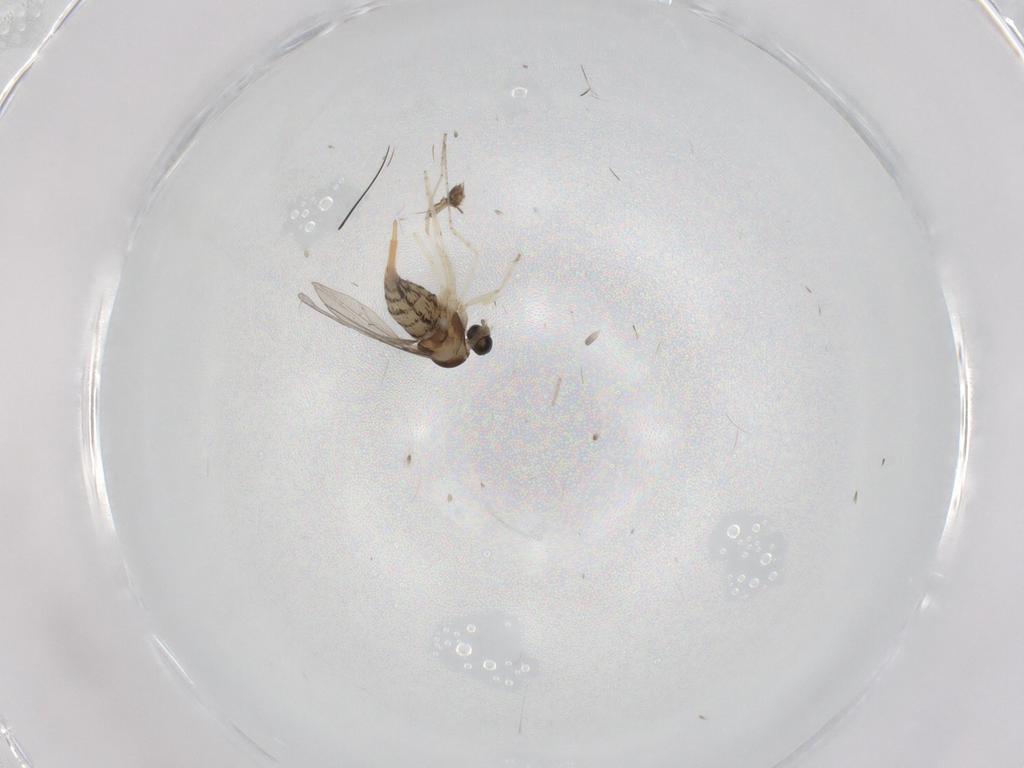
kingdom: Animalia
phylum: Arthropoda
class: Insecta
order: Diptera
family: Cecidomyiidae
